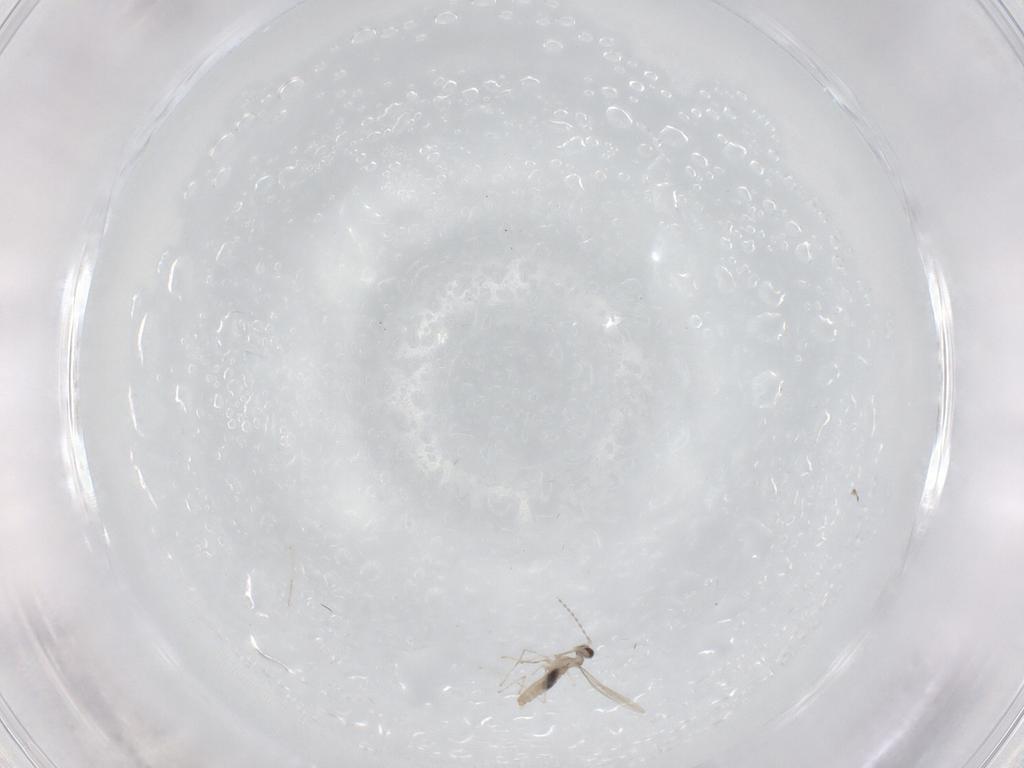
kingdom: Animalia
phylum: Arthropoda
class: Insecta
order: Diptera
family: Cecidomyiidae
